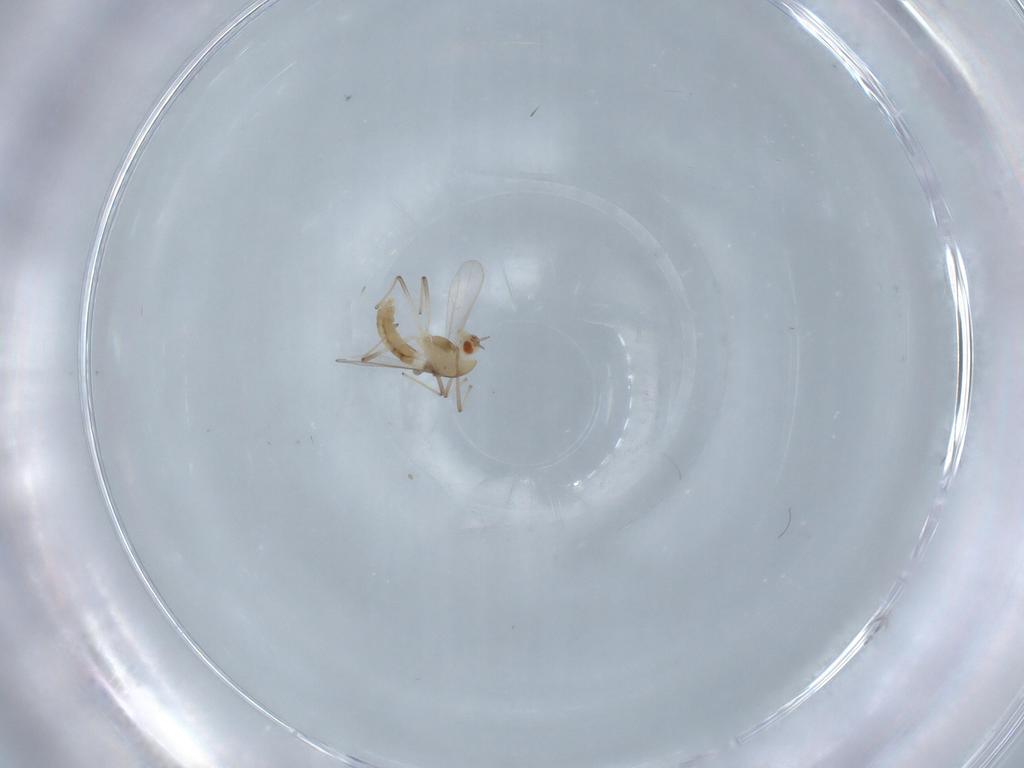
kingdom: Animalia
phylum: Arthropoda
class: Insecta
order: Diptera
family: Chironomidae
